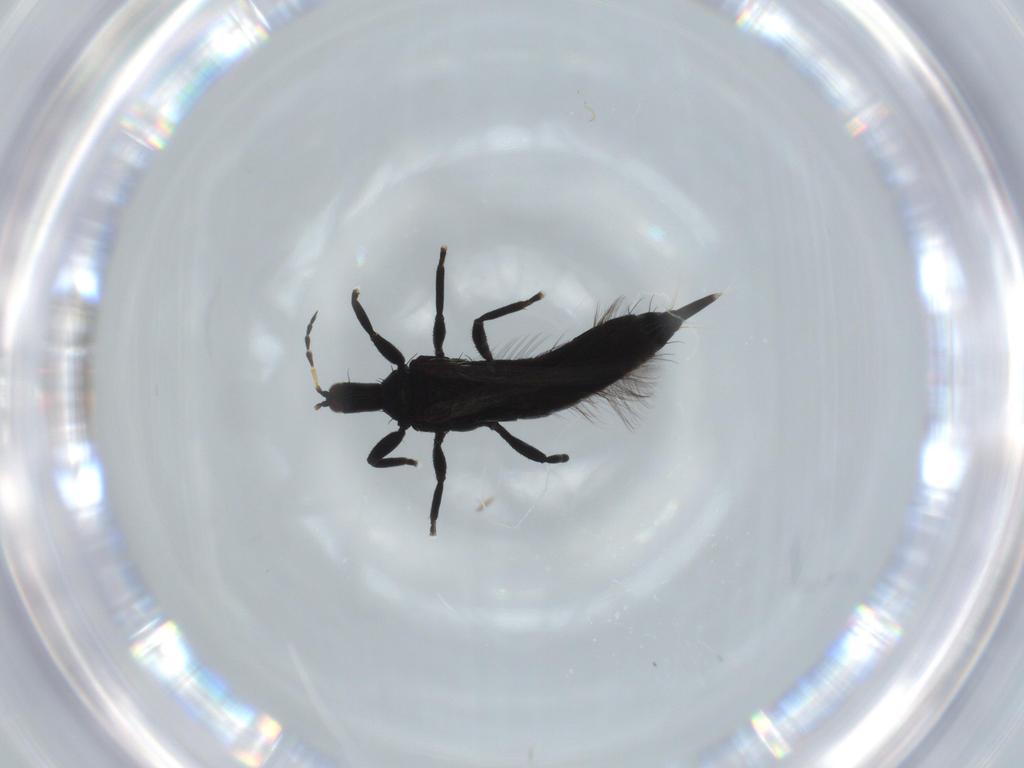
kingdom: Animalia
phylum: Arthropoda
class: Insecta
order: Thysanoptera
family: Phlaeothripidae
